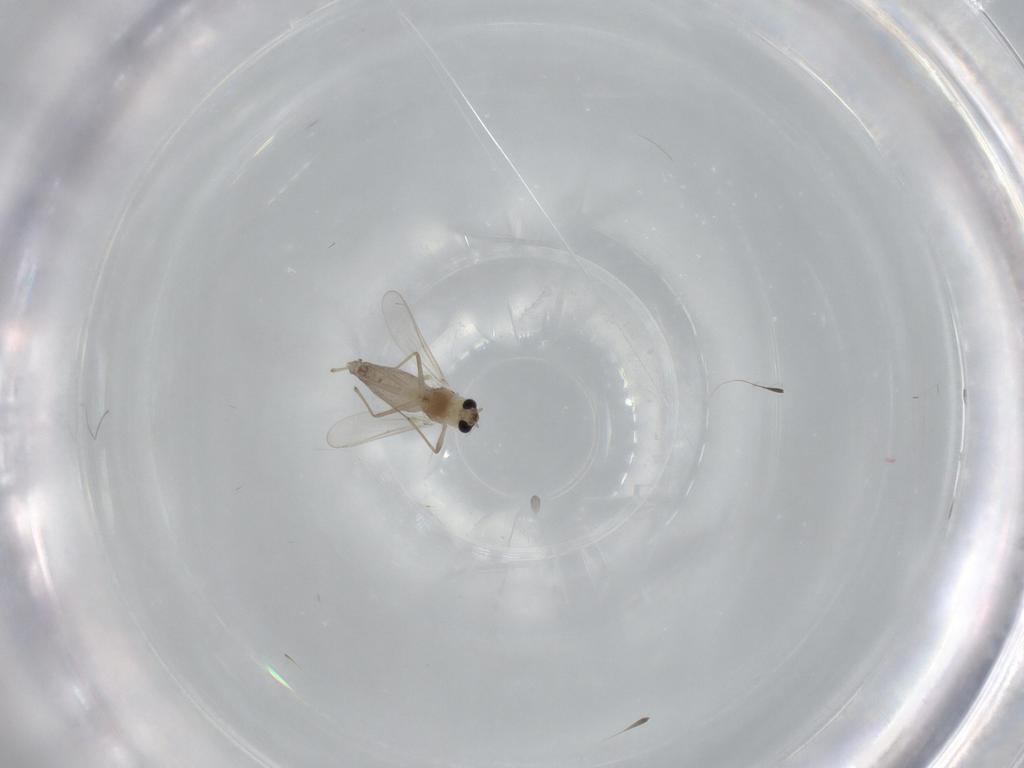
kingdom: Animalia
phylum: Arthropoda
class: Insecta
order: Diptera
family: Chironomidae
